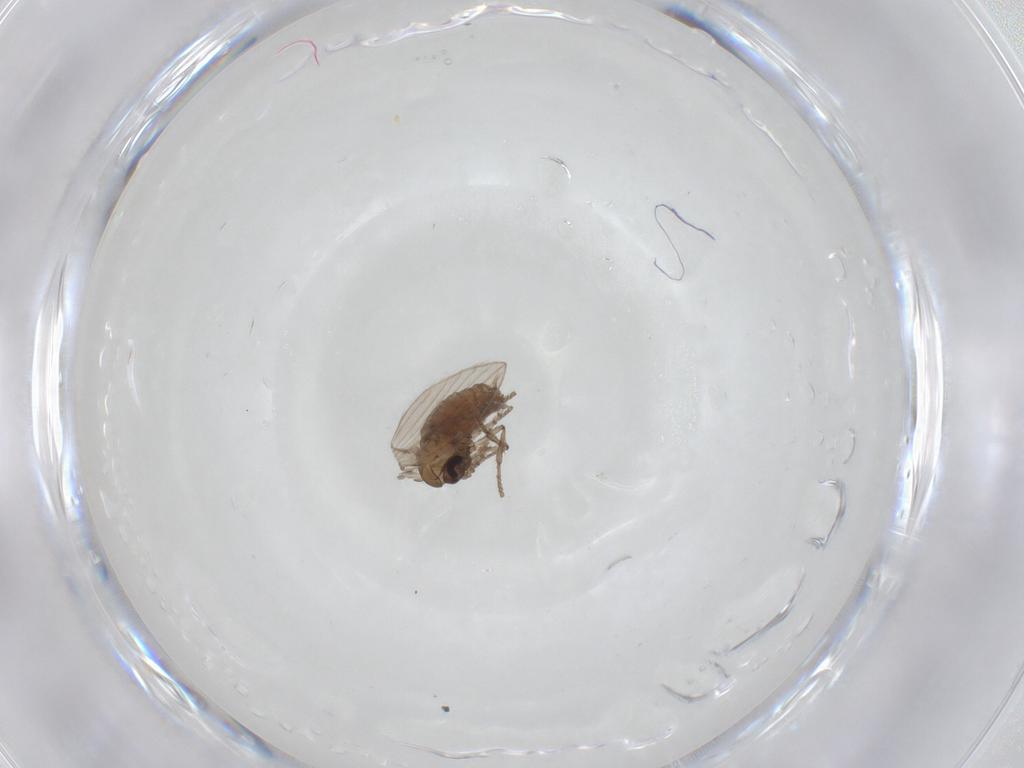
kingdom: Animalia
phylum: Arthropoda
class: Insecta
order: Diptera
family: Psychodidae
